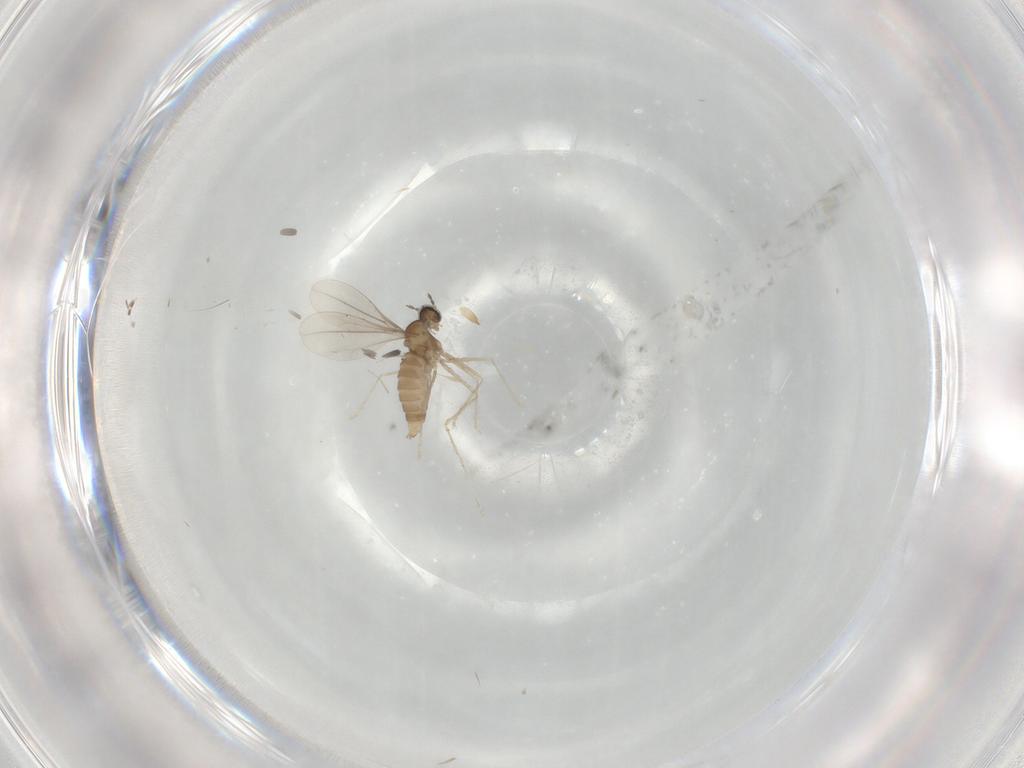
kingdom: Animalia
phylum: Arthropoda
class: Insecta
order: Diptera
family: Cecidomyiidae
